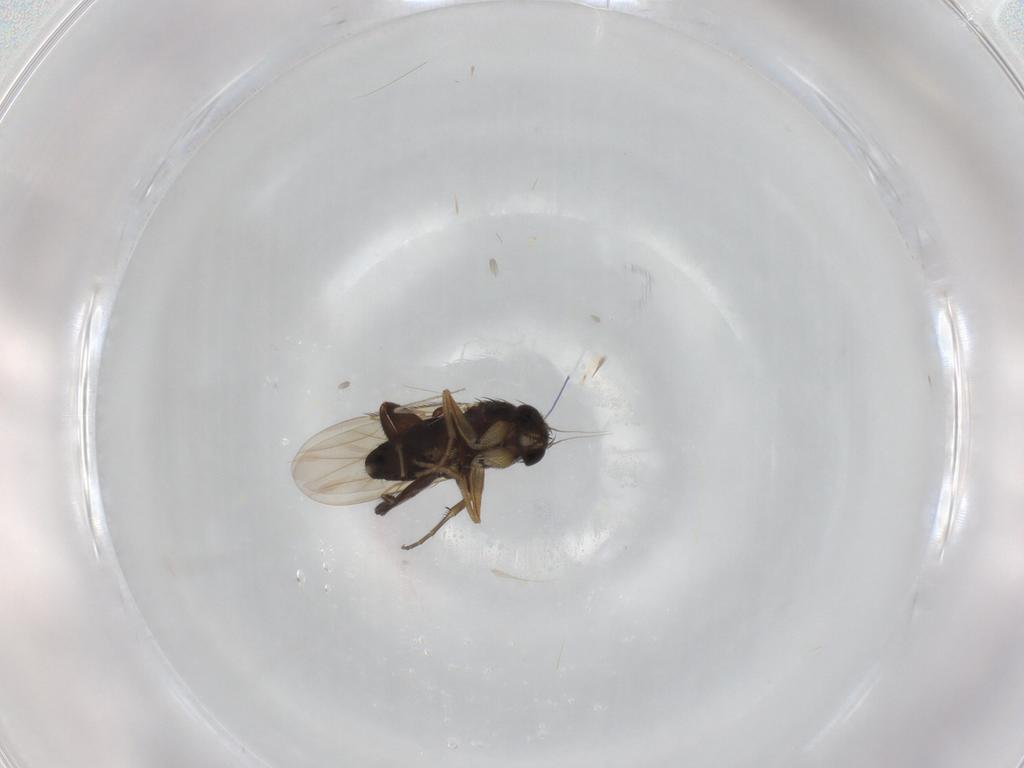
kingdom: Animalia
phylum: Arthropoda
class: Insecta
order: Diptera
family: Phoridae
